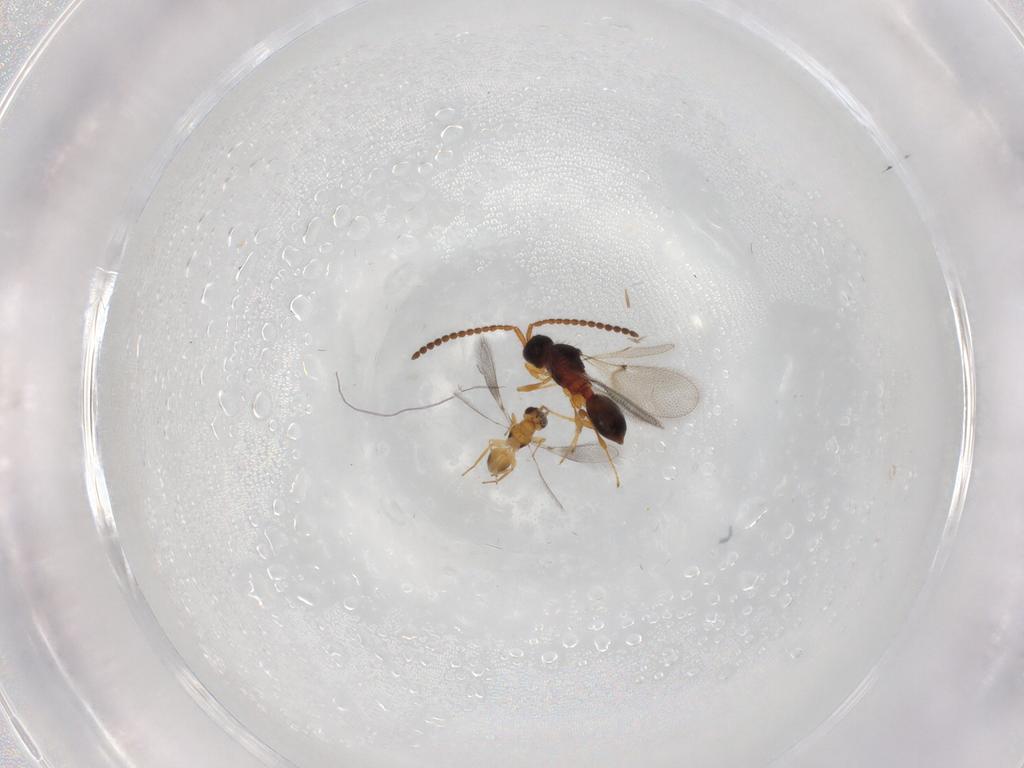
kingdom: Animalia
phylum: Arthropoda
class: Insecta
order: Hymenoptera
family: Diapriidae
